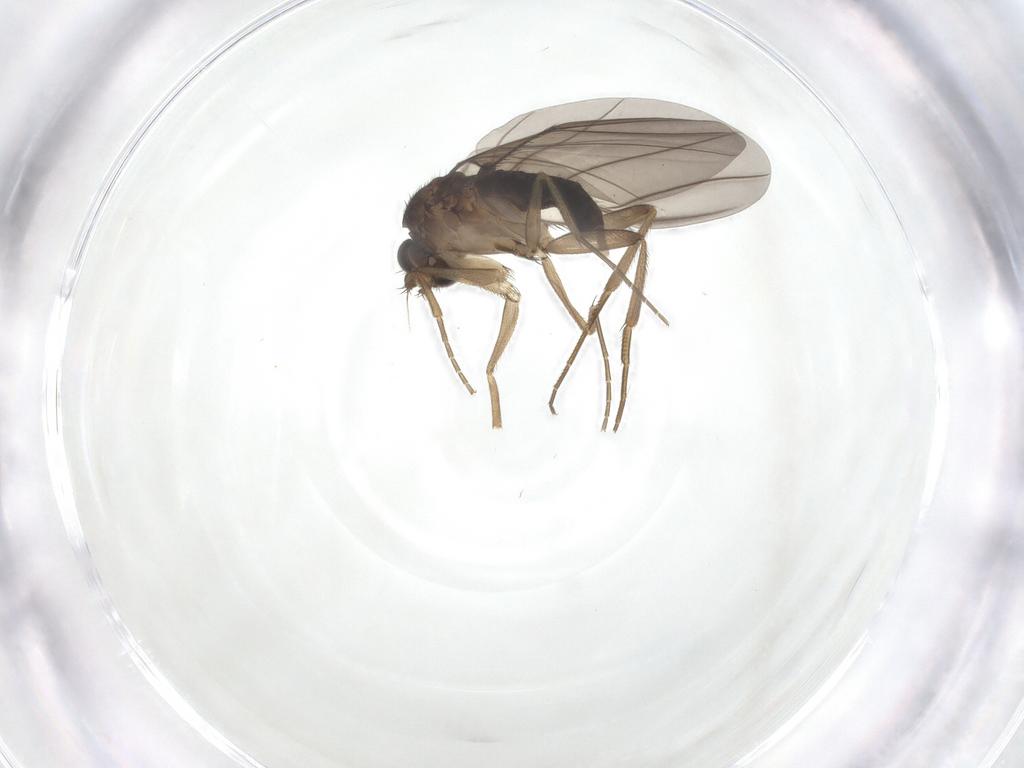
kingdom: Animalia
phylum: Arthropoda
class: Insecta
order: Diptera
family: Phoridae
